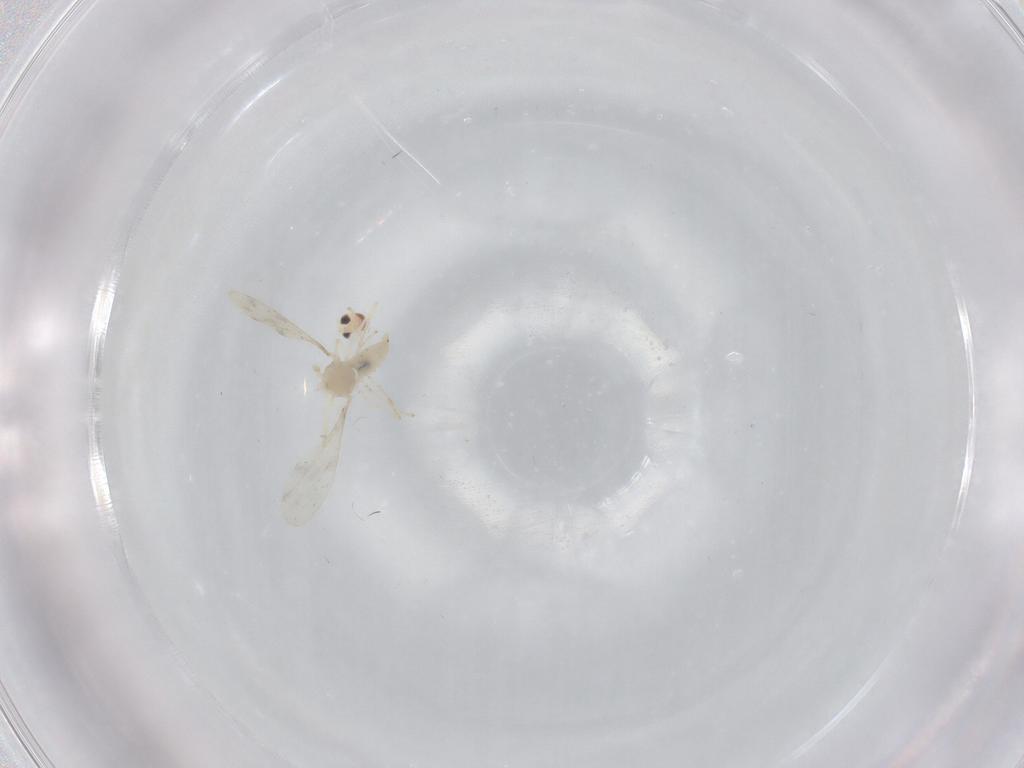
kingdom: Animalia
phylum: Arthropoda
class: Insecta
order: Diptera
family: Cecidomyiidae
